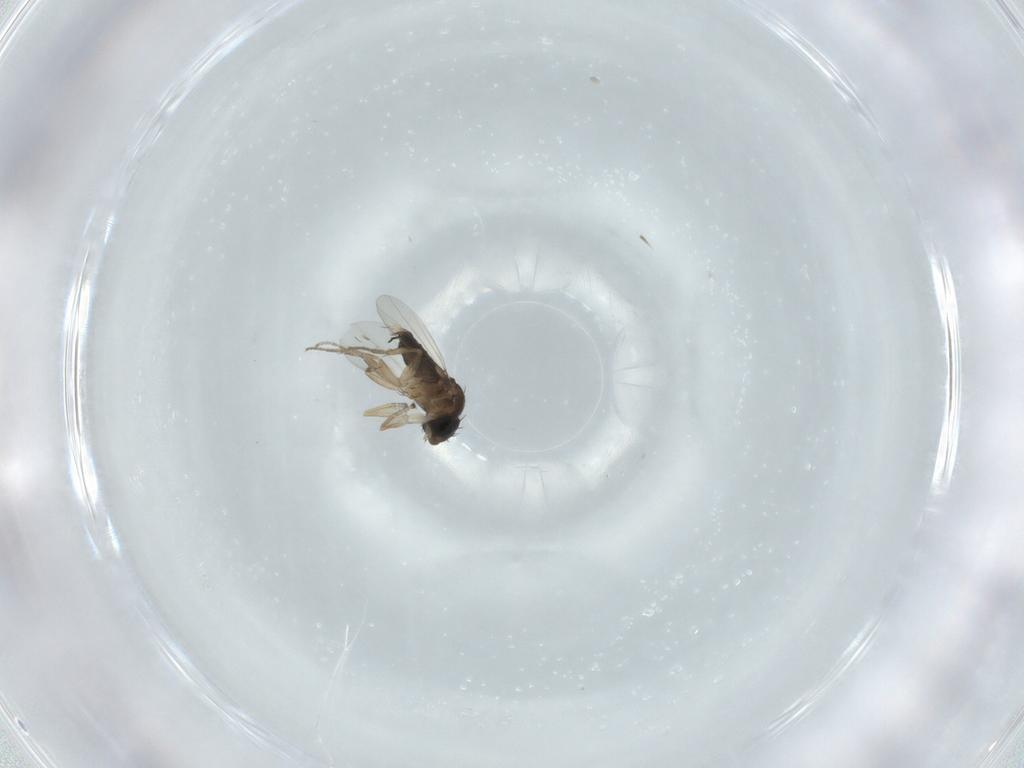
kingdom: Animalia
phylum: Arthropoda
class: Insecta
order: Diptera
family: Phoridae
